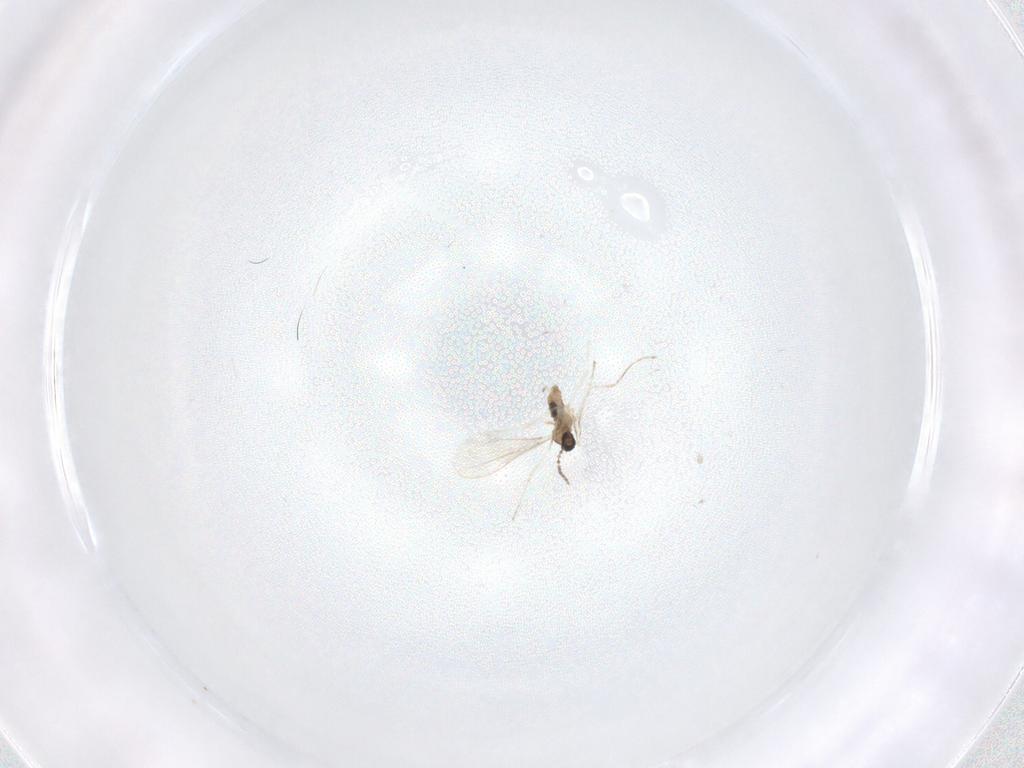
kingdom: Animalia
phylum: Arthropoda
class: Insecta
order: Diptera
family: Cecidomyiidae
